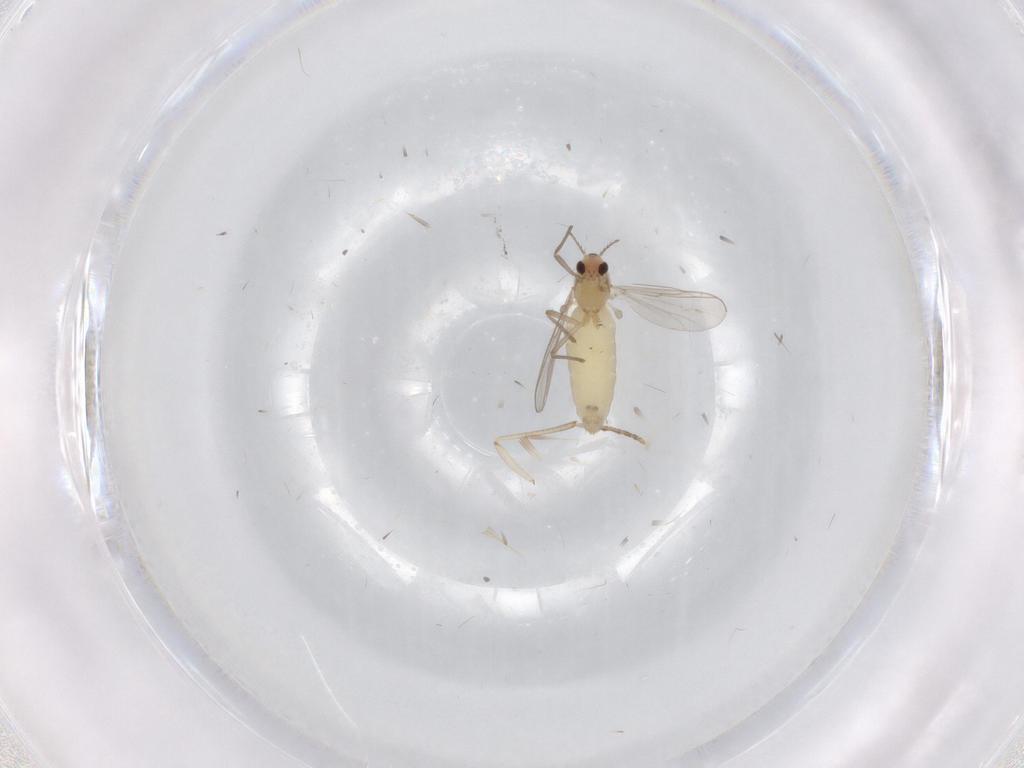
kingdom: Animalia
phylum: Arthropoda
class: Insecta
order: Diptera
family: Chironomidae
